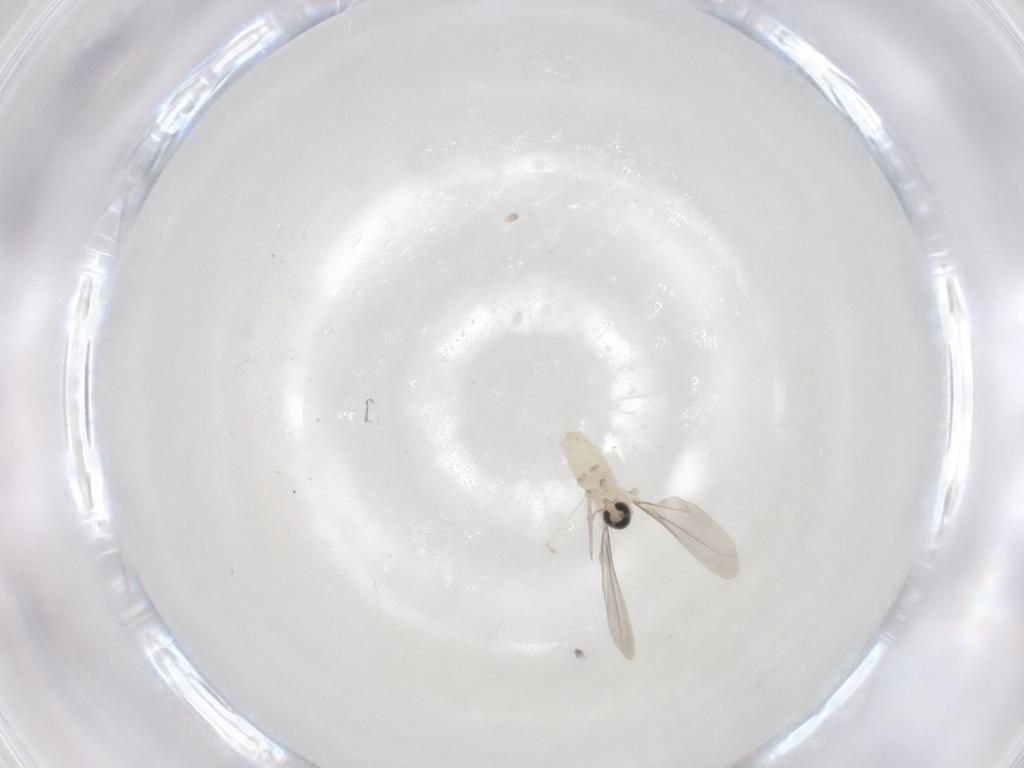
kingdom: Animalia
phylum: Arthropoda
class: Insecta
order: Diptera
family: Cecidomyiidae
